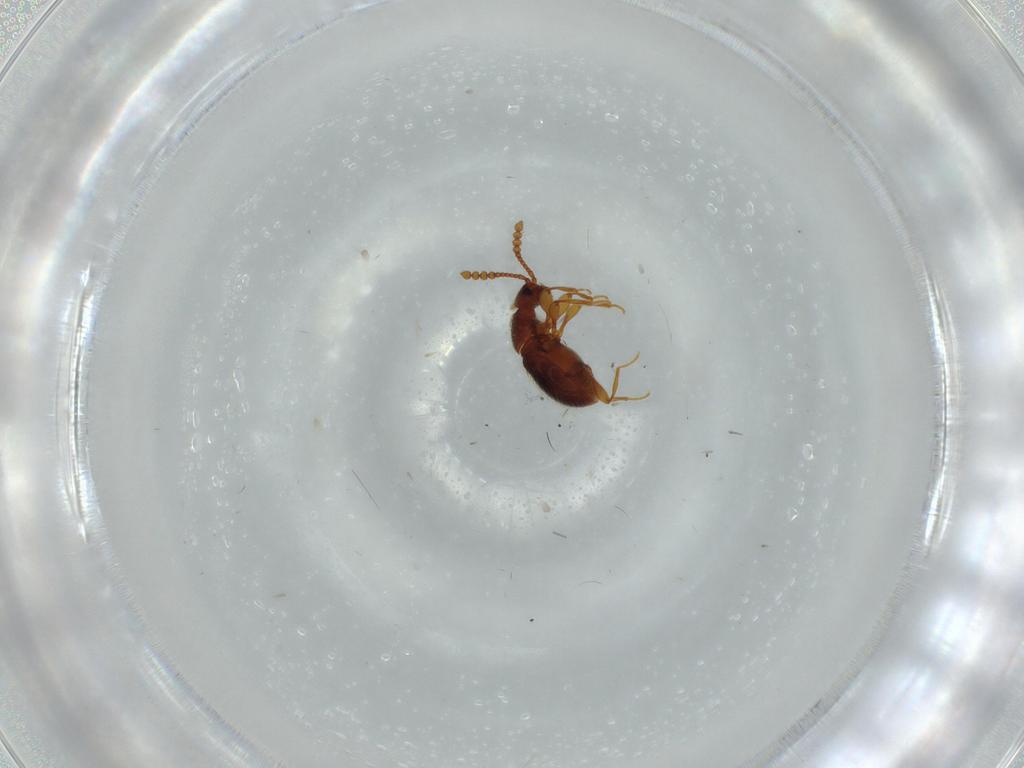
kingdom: Animalia
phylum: Arthropoda
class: Insecta
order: Coleoptera
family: Staphylinidae
